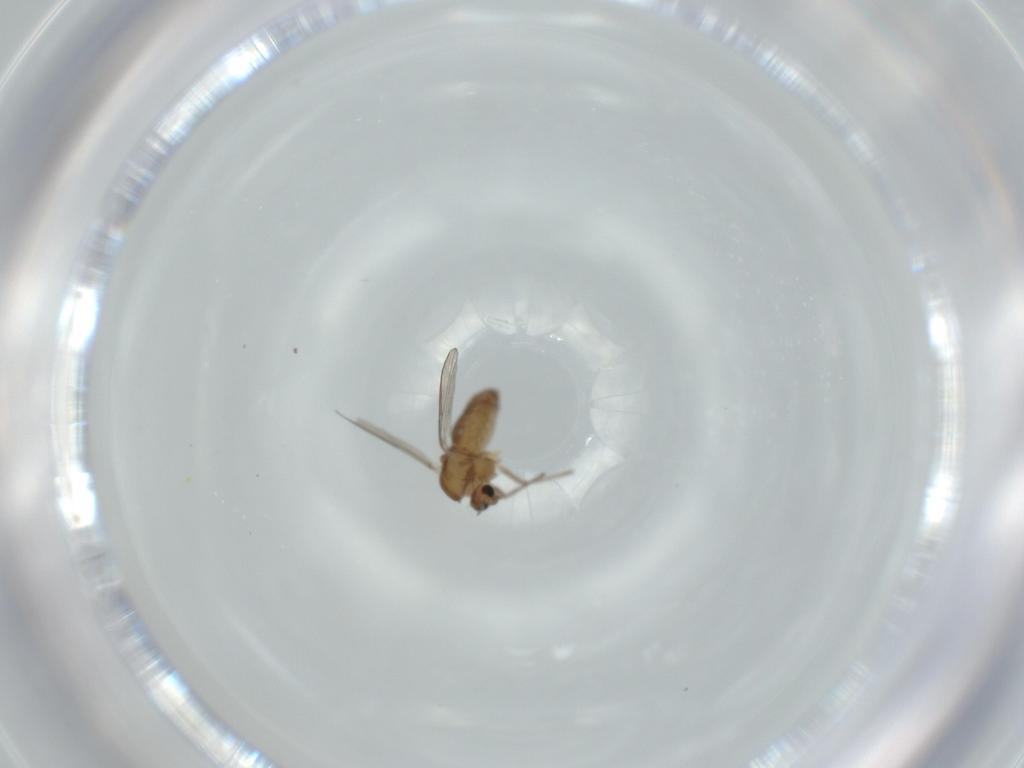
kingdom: Animalia
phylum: Arthropoda
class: Insecta
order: Diptera
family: Chironomidae
